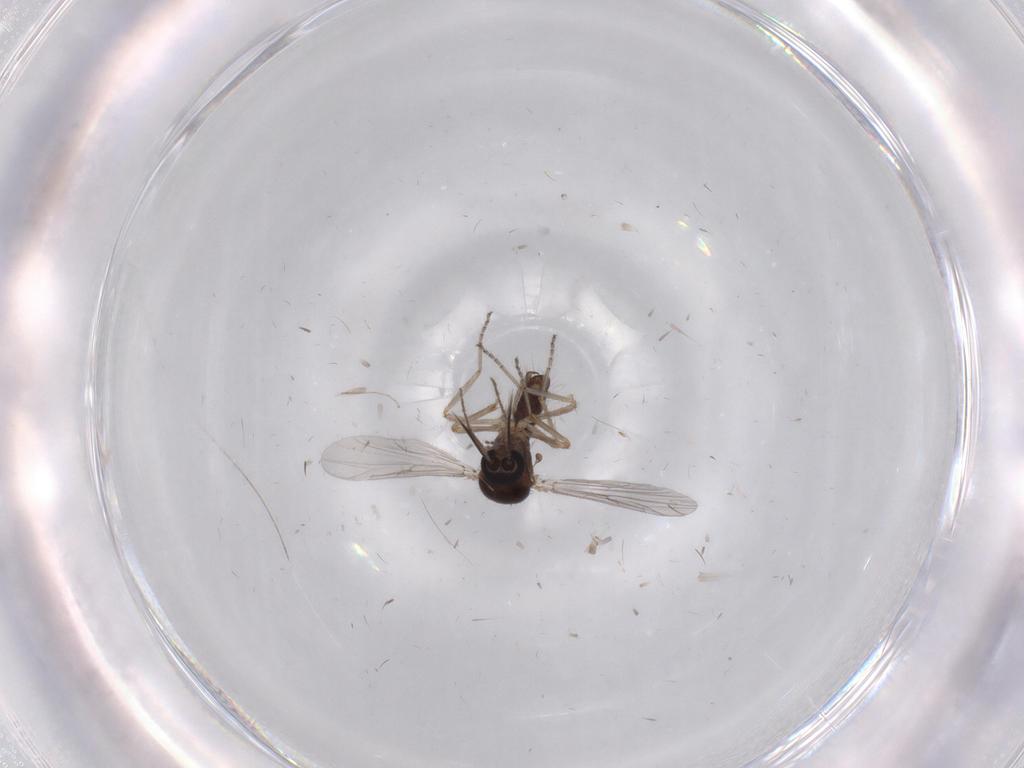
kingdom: Animalia
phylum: Arthropoda
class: Insecta
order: Diptera
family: Ceratopogonidae
